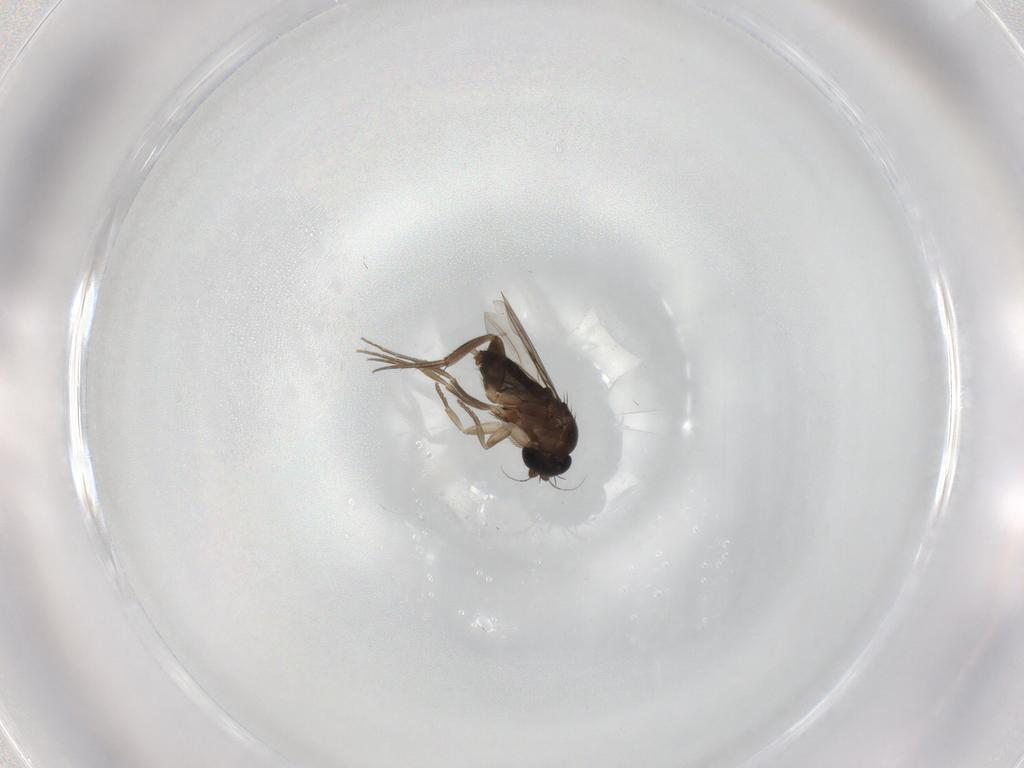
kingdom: Animalia
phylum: Arthropoda
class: Insecta
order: Diptera
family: Phoridae
